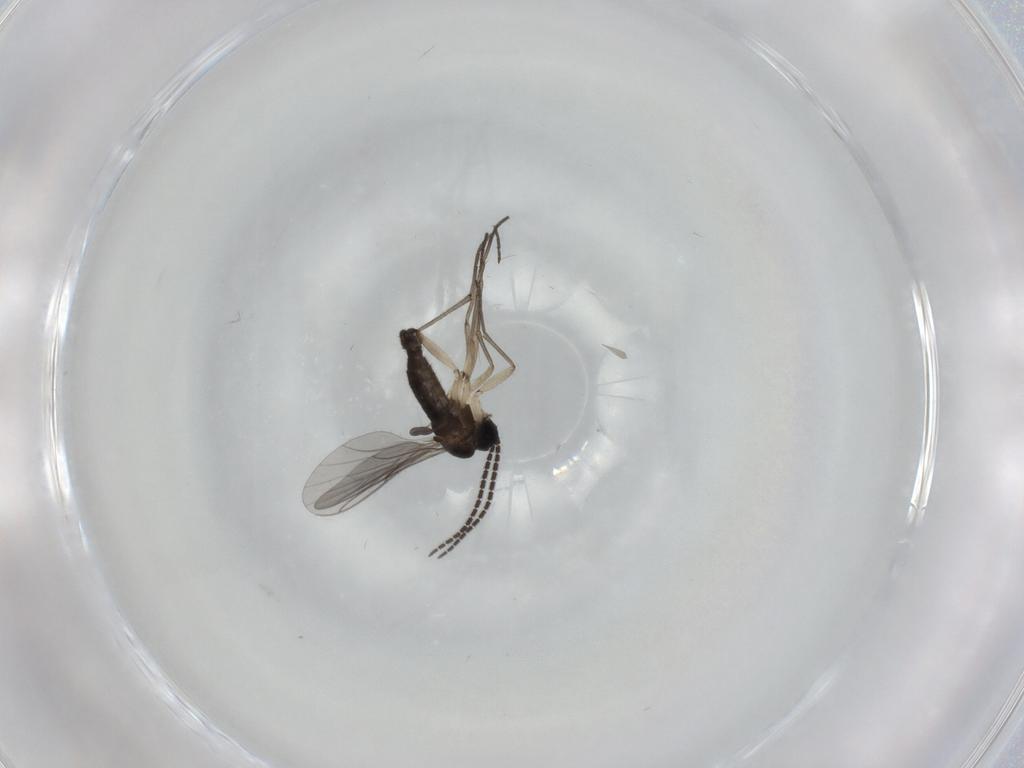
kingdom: Animalia
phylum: Arthropoda
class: Insecta
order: Diptera
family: Sciaridae
